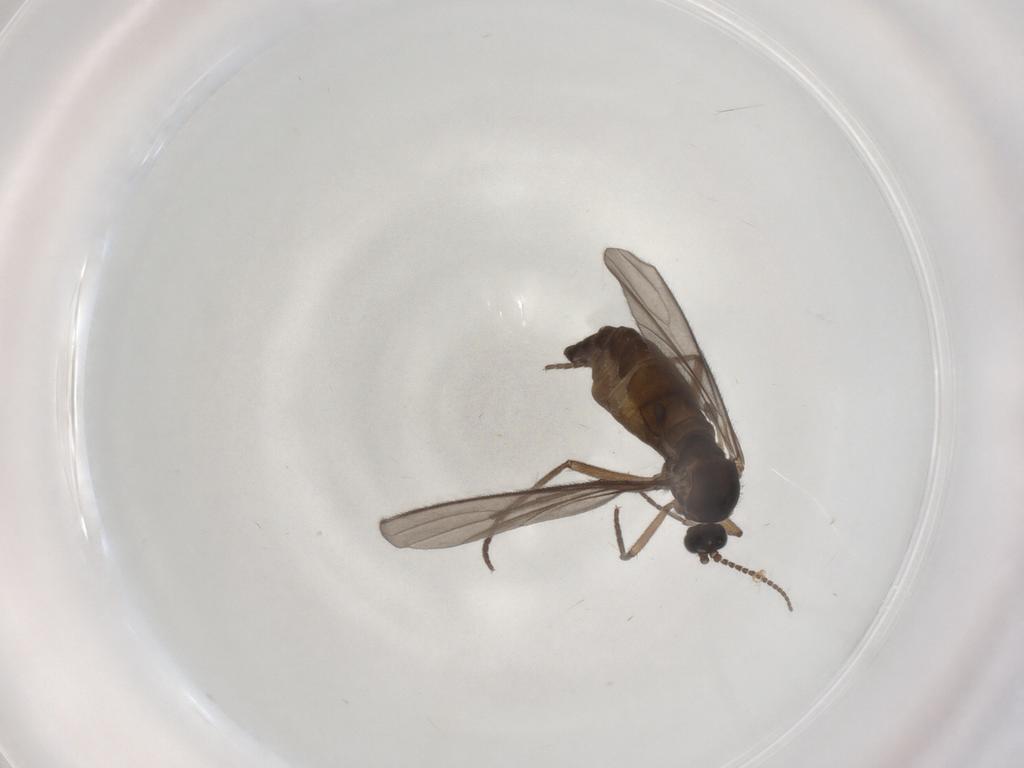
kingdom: Animalia
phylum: Arthropoda
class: Insecta
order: Diptera
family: Sciaridae
